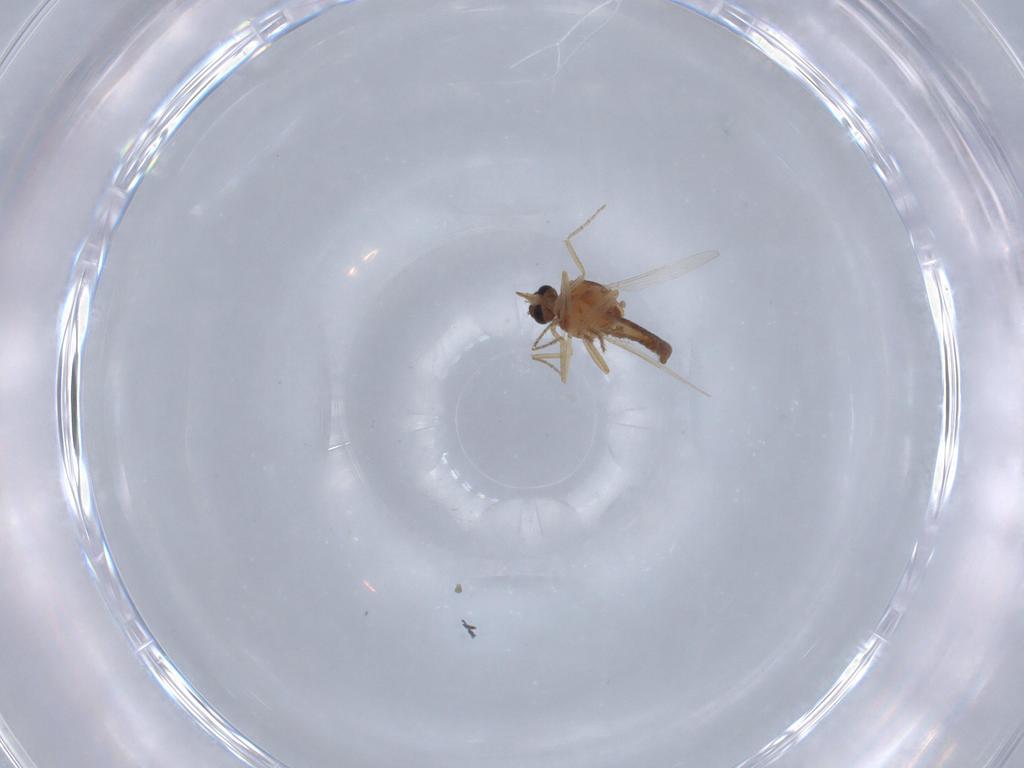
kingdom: Animalia
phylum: Arthropoda
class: Insecta
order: Diptera
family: Ceratopogonidae
